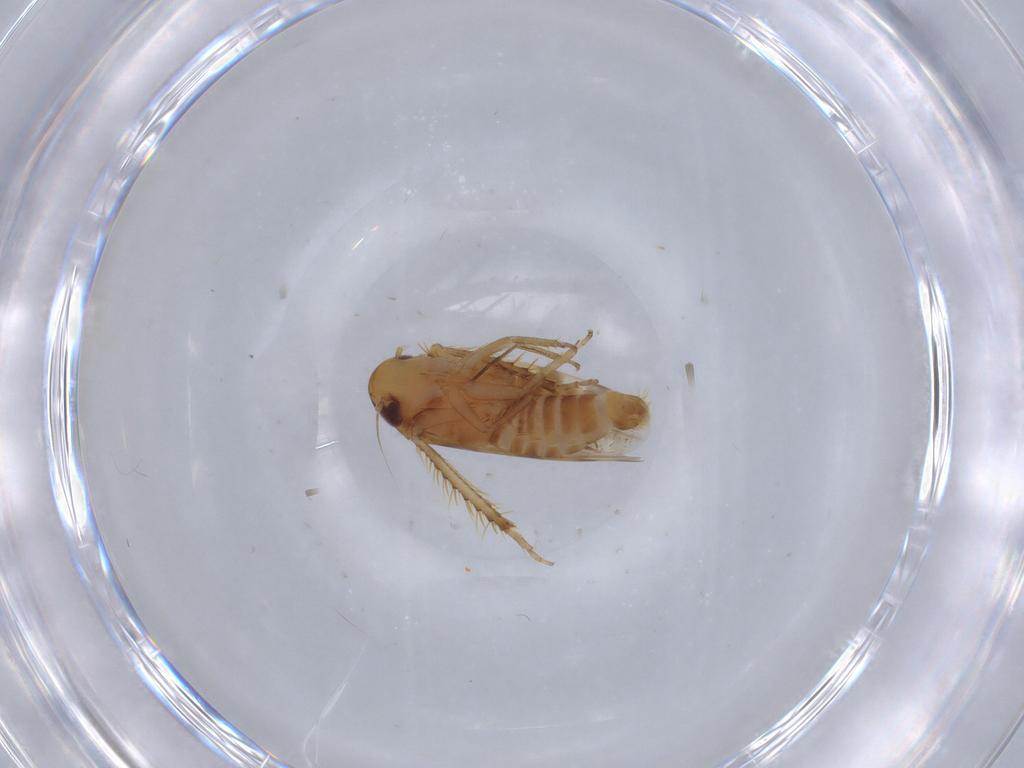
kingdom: Animalia
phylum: Arthropoda
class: Insecta
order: Hemiptera
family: Cicadellidae
